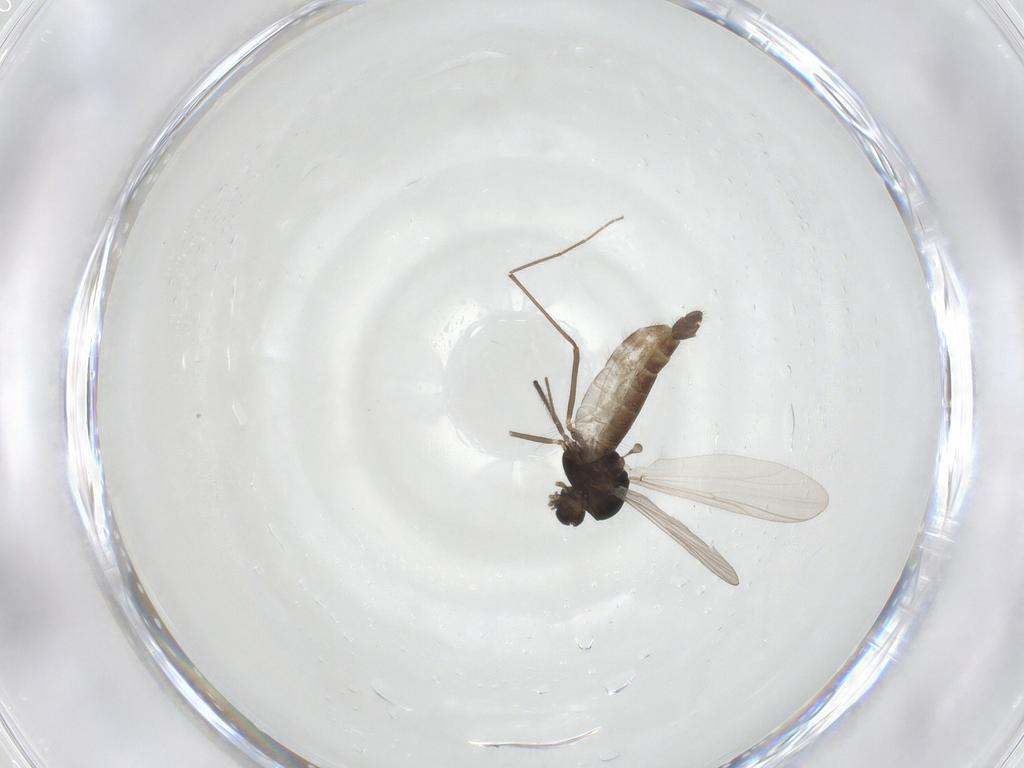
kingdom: Animalia
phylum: Arthropoda
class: Insecta
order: Diptera
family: Chironomidae
